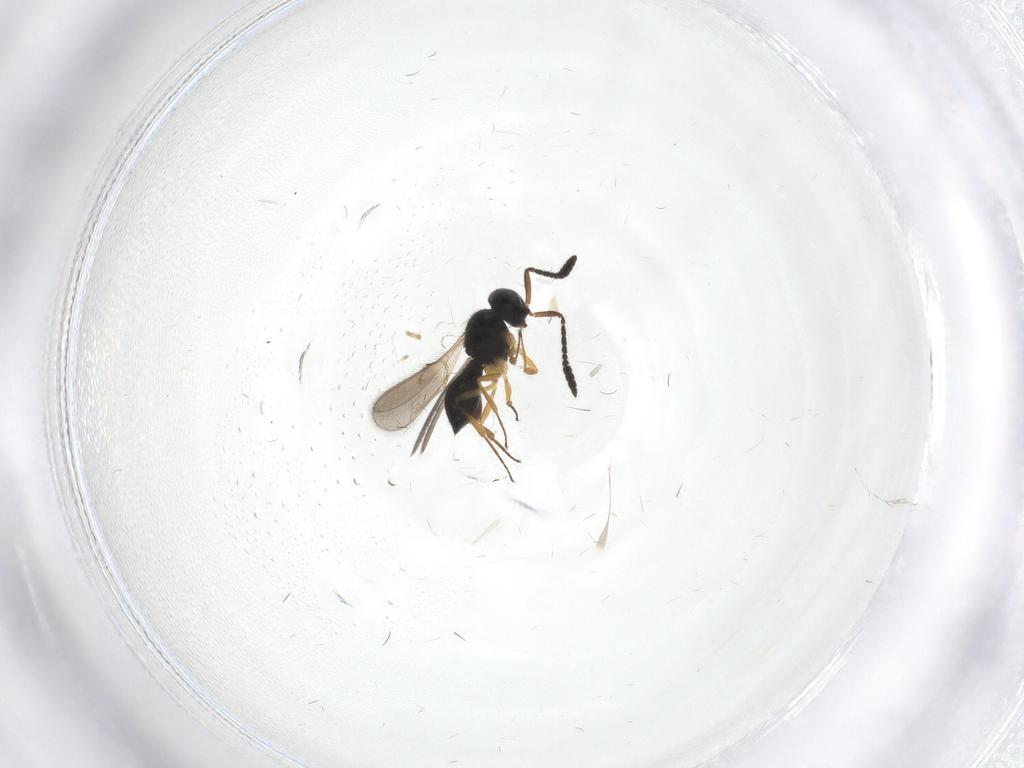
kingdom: Animalia
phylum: Arthropoda
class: Insecta
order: Hymenoptera
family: Scelionidae
